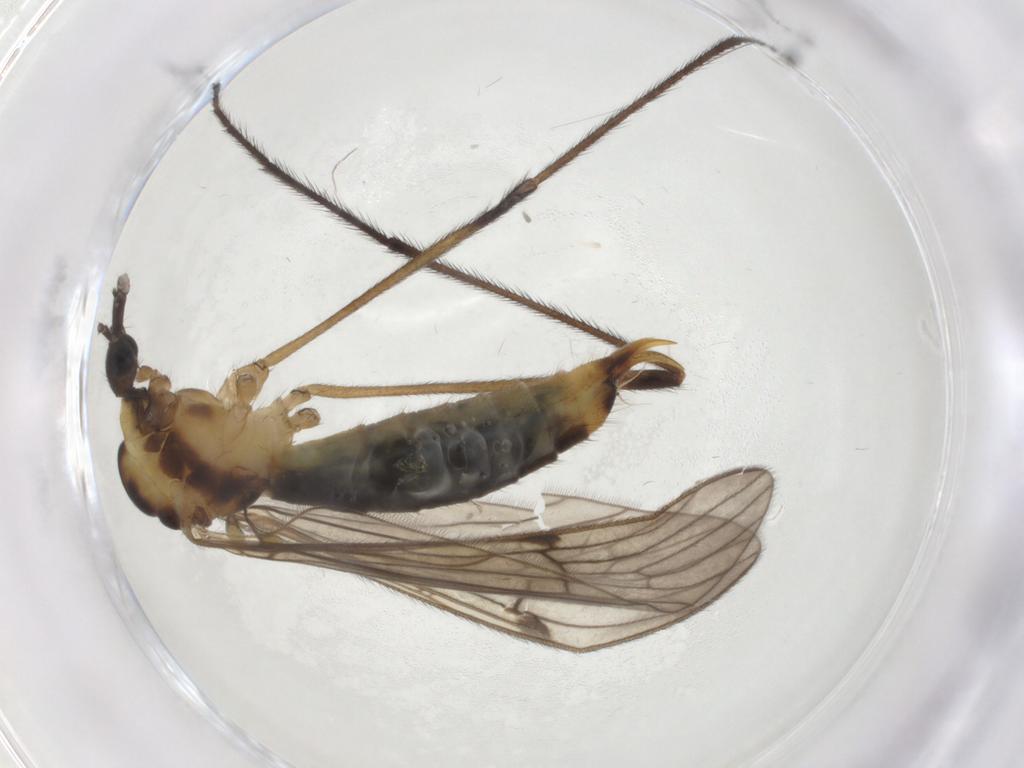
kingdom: Animalia
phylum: Arthropoda
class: Insecta
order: Diptera
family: Limoniidae
